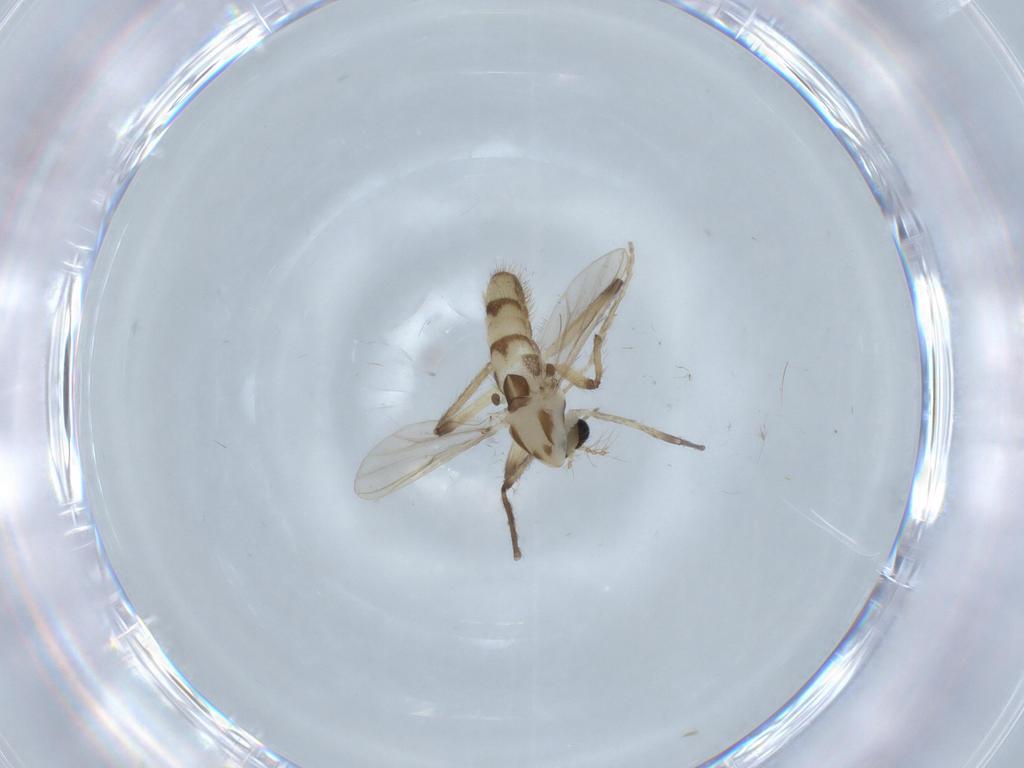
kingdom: Animalia
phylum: Arthropoda
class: Insecta
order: Diptera
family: Chironomidae
